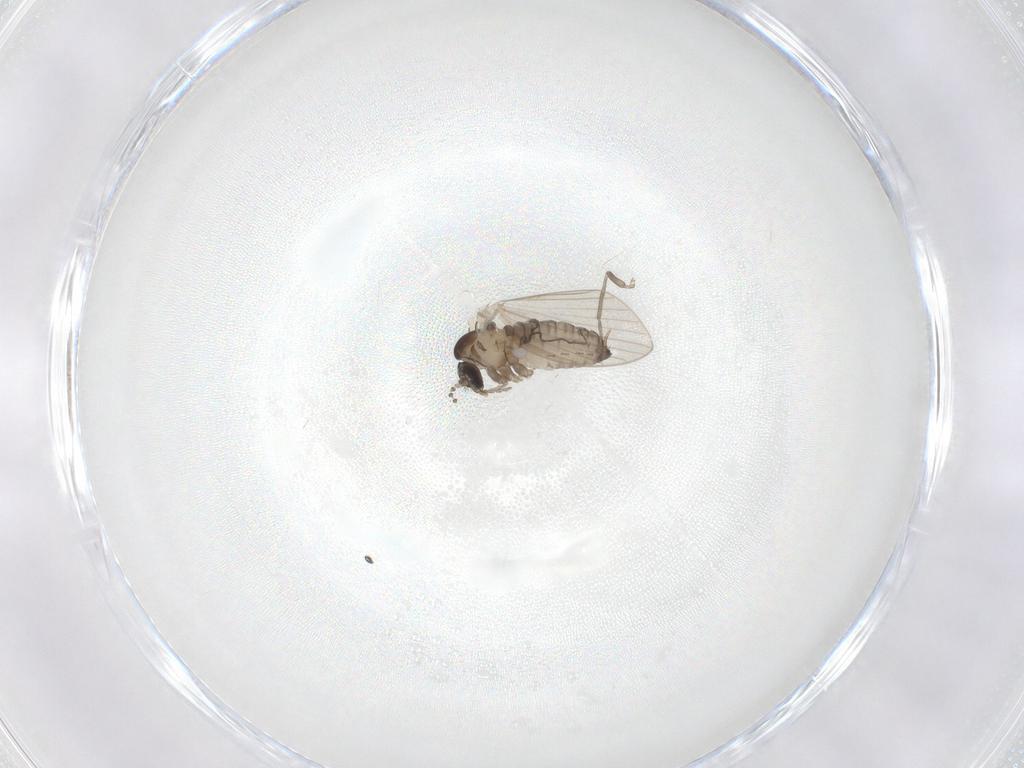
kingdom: Animalia
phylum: Arthropoda
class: Insecta
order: Diptera
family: Psychodidae
